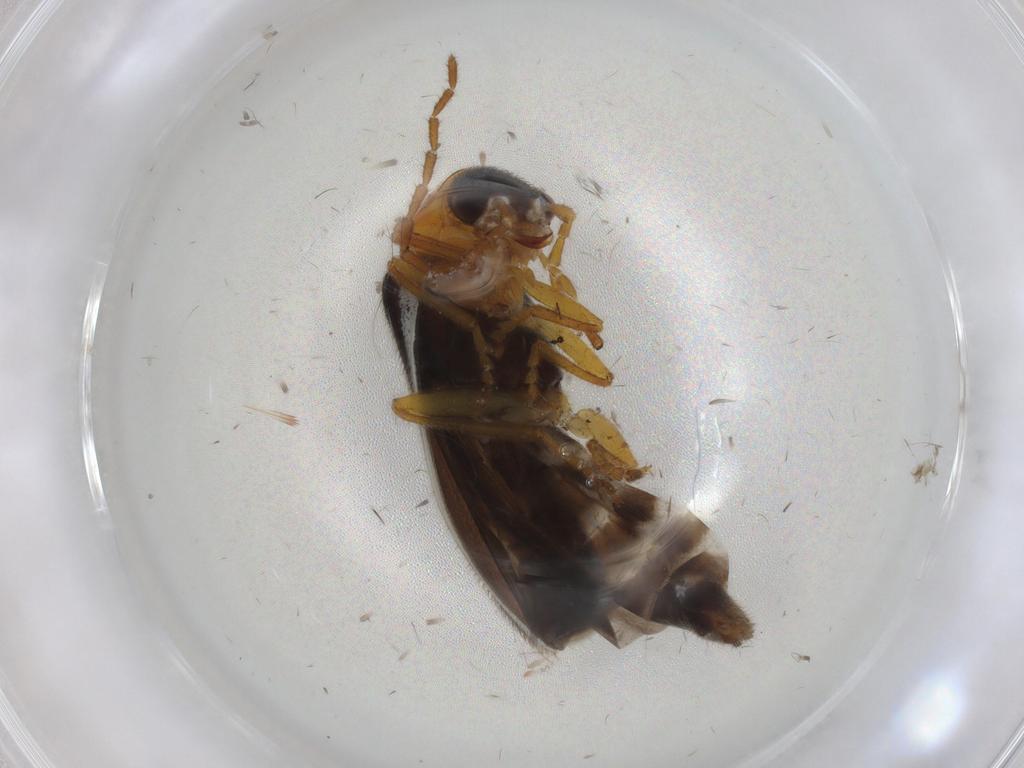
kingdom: Animalia
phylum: Arthropoda
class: Insecta
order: Coleoptera
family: Cantharidae
